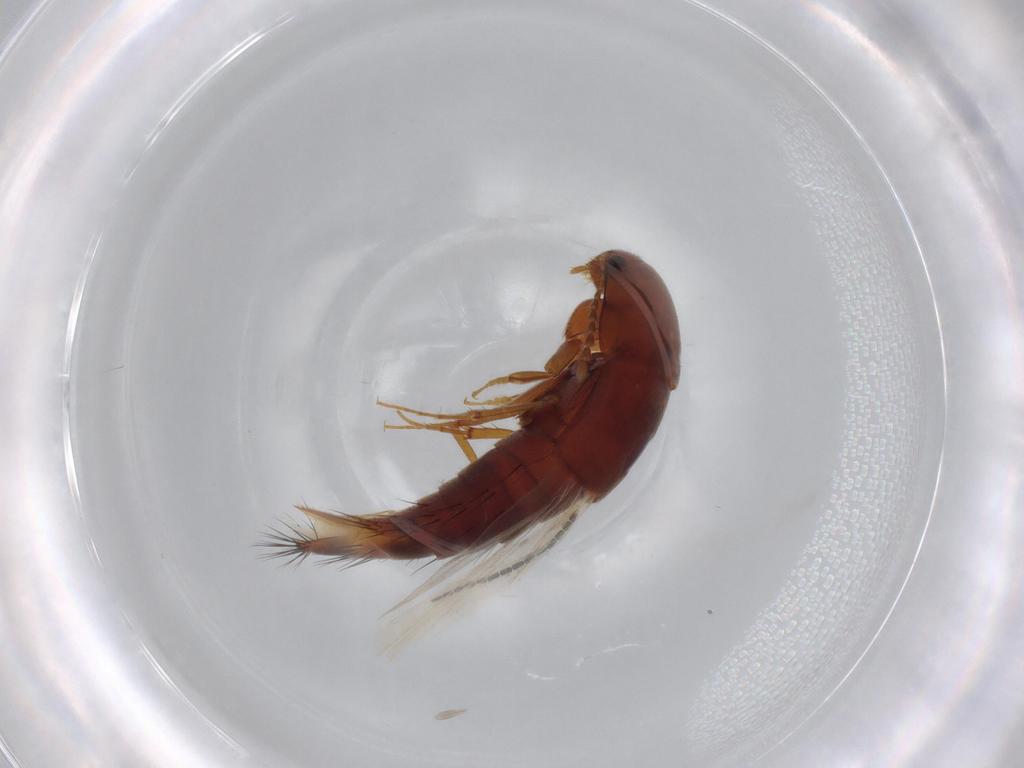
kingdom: Animalia
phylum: Arthropoda
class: Insecta
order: Coleoptera
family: Staphylinidae
